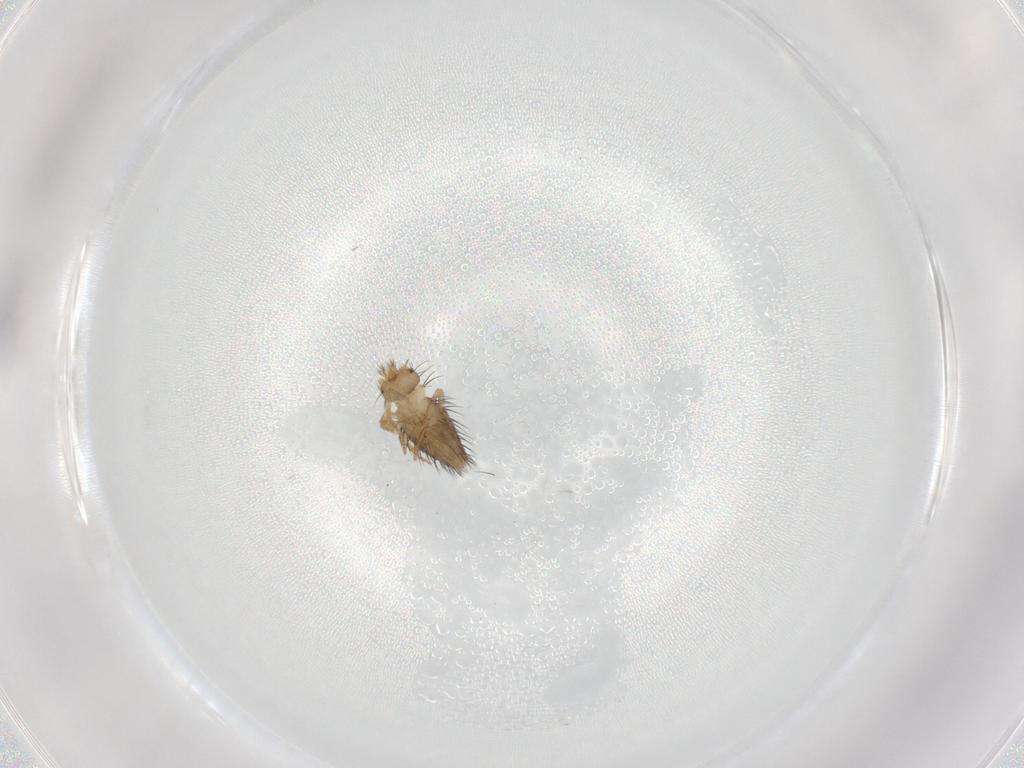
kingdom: Animalia
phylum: Arthropoda
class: Insecta
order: Diptera
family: Phoridae
